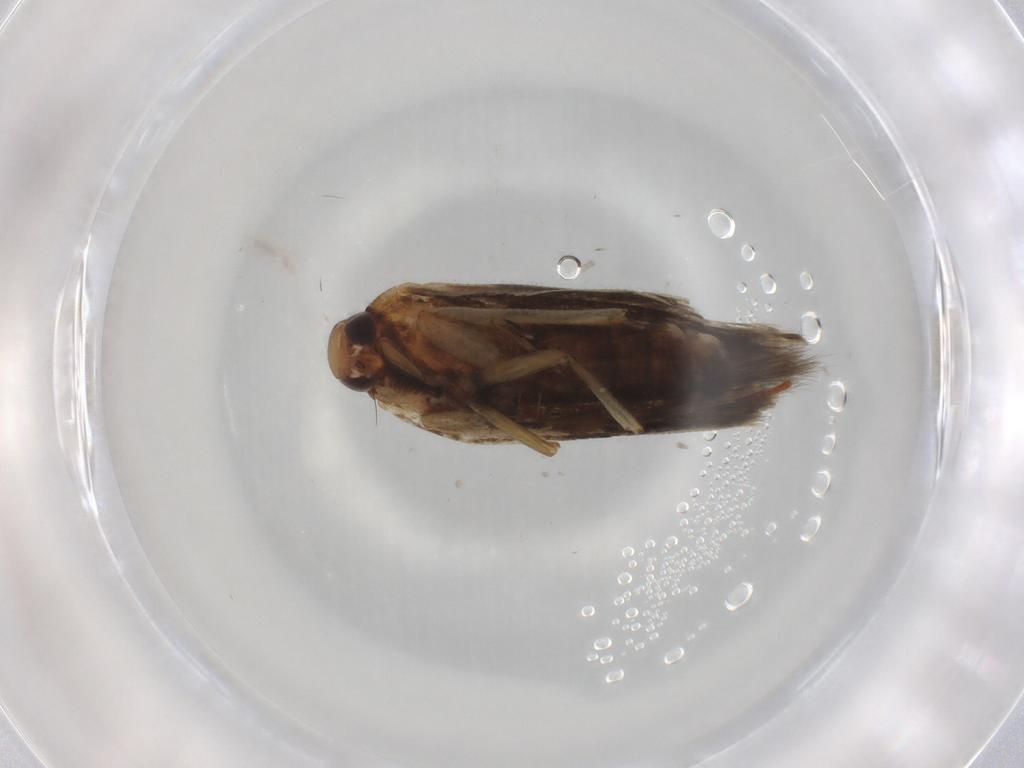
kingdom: Animalia
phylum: Arthropoda
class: Insecta
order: Lepidoptera
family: Cosmopterigidae
